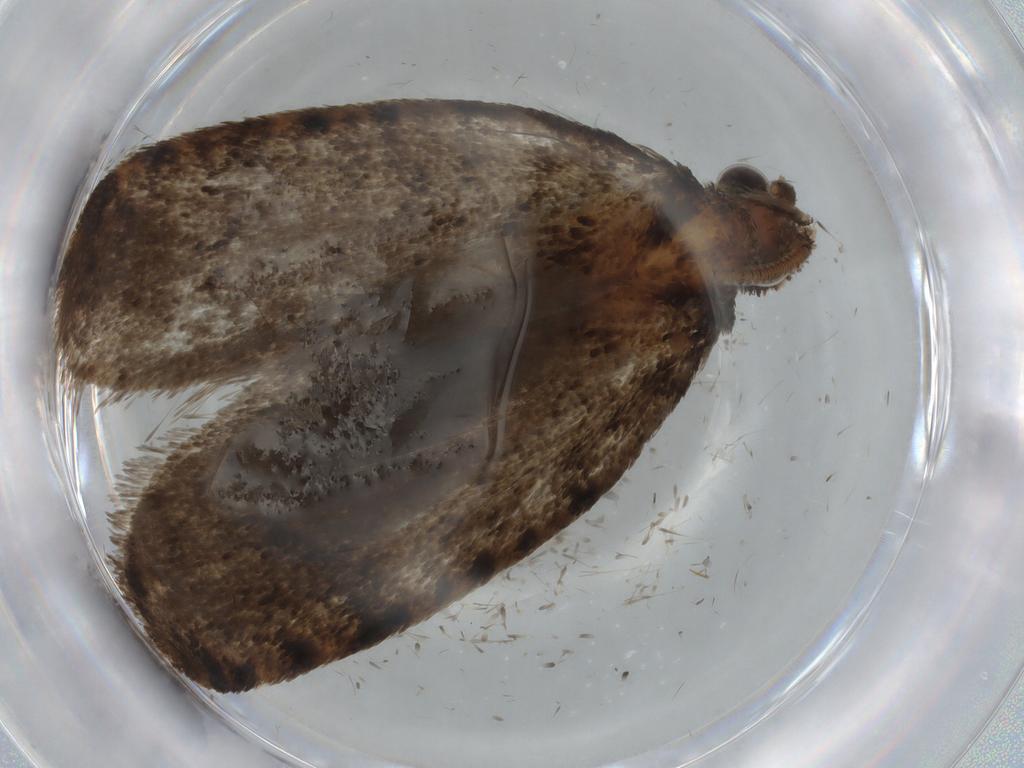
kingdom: Animalia
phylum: Arthropoda
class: Insecta
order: Lepidoptera
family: Tineidae
